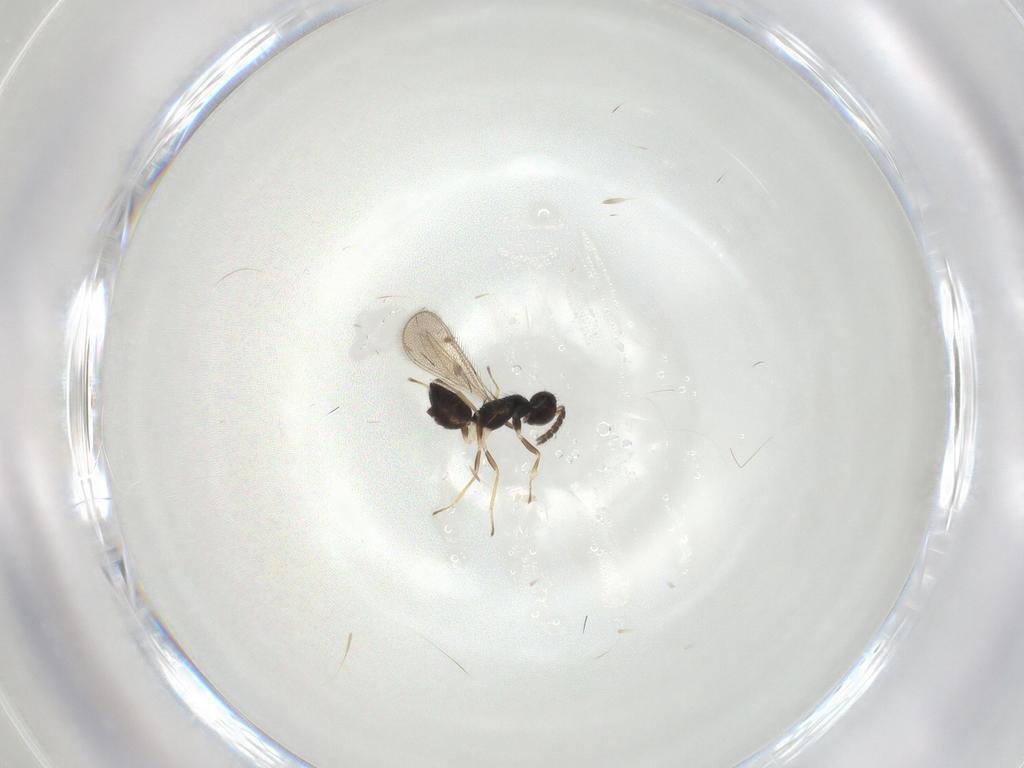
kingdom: Animalia
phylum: Arthropoda
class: Insecta
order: Hymenoptera
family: Eulophidae
